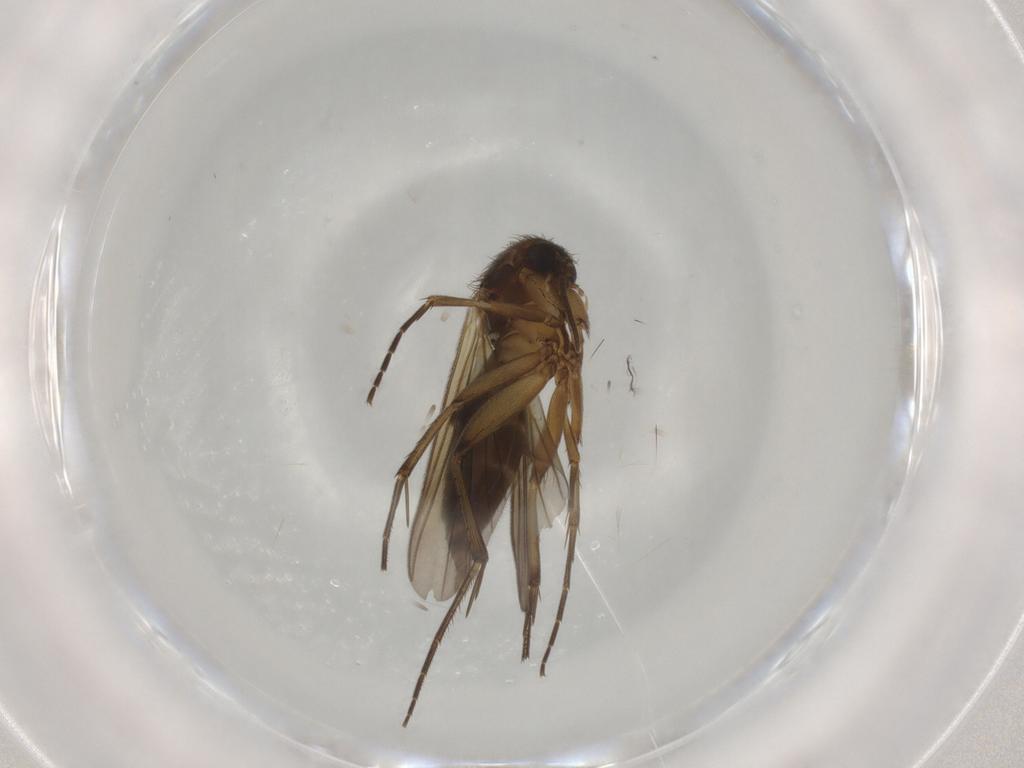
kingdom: Animalia
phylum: Arthropoda
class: Insecta
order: Diptera
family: Mycetophilidae
